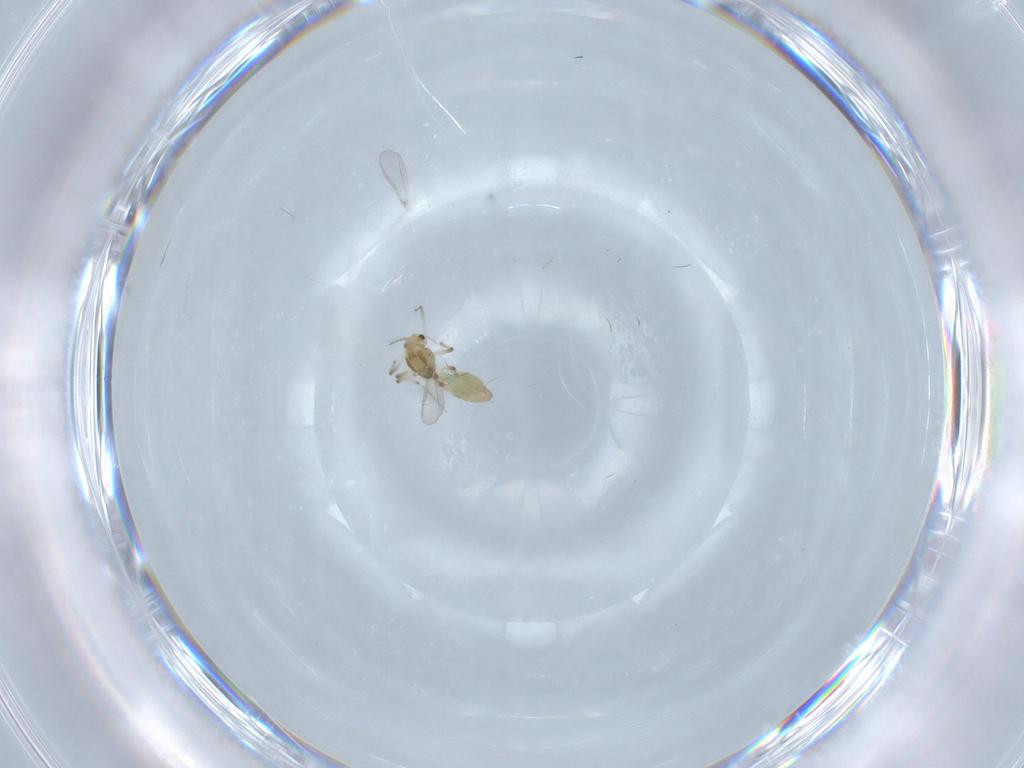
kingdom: Animalia
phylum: Arthropoda
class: Insecta
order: Diptera
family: Chironomidae
